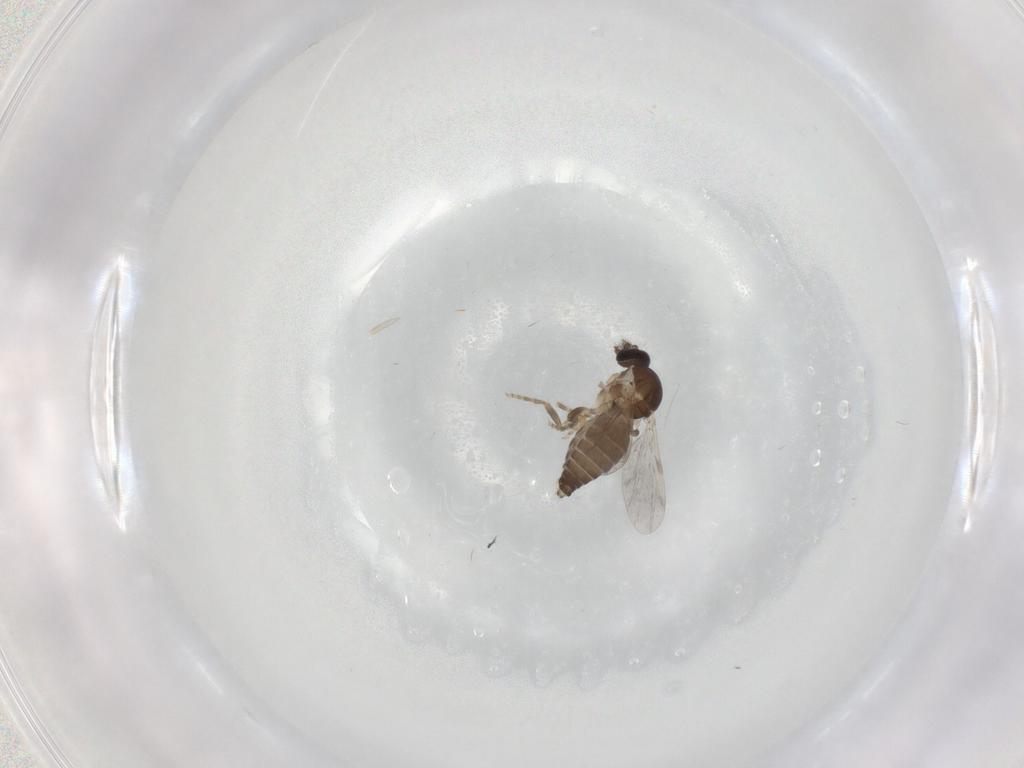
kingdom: Animalia
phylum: Arthropoda
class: Insecta
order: Diptera
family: Ceratopogonidae
